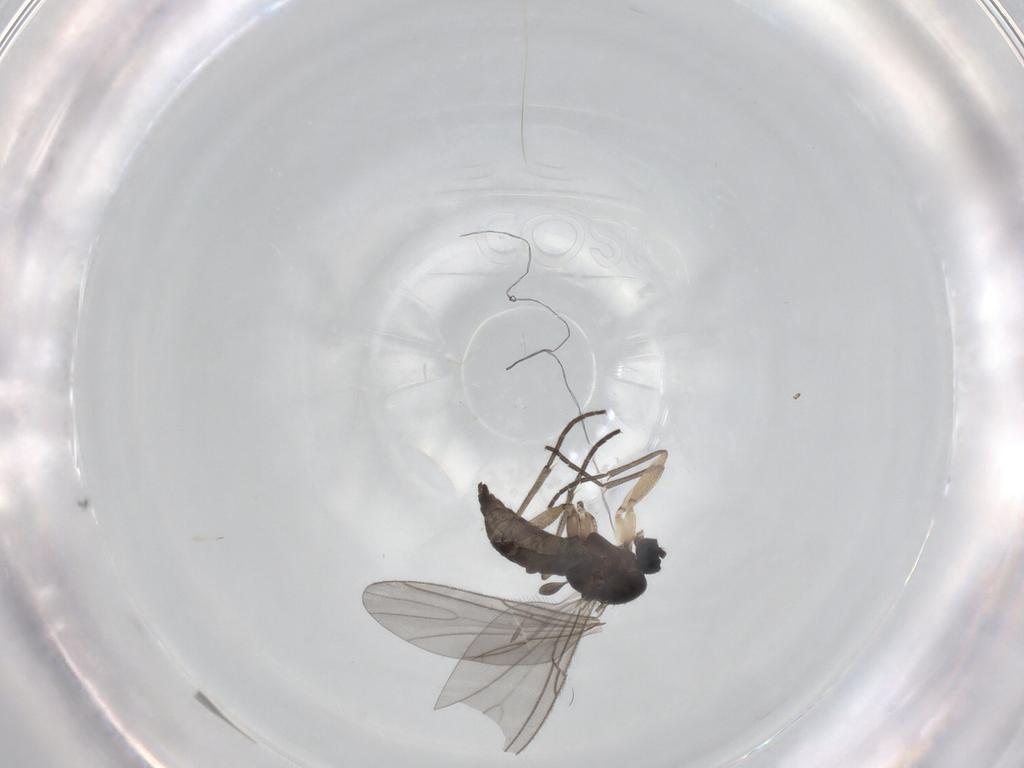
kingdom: Animalia
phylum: Arthropoda
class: Insecta
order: Diptera
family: Sciaridae
